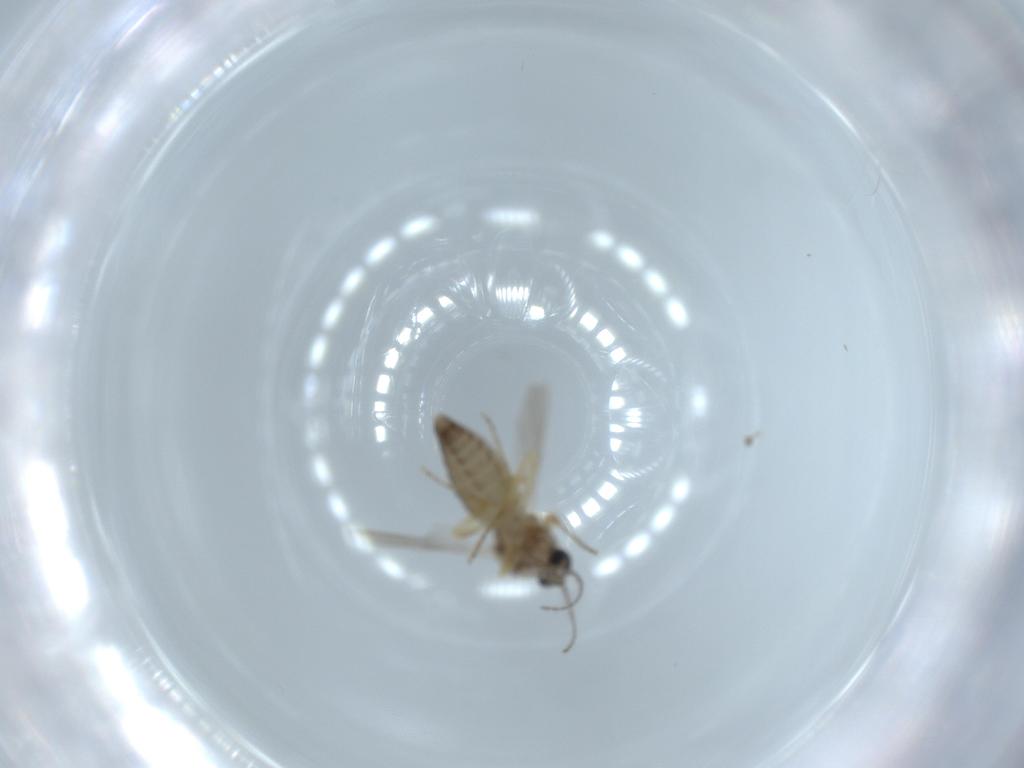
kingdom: Animalia
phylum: Arthropoda
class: Insecta
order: Diptera
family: Ceratopogonidae
